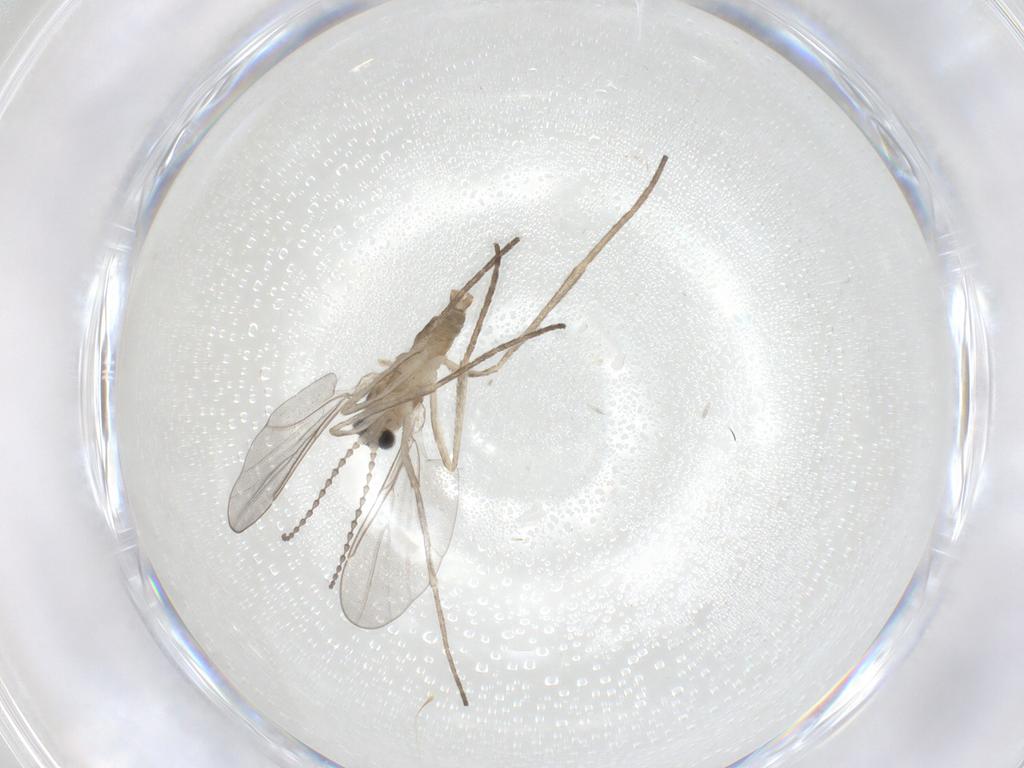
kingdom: Animalia
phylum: Arthropoda
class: Insecta
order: Diptera
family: Cecidomyiidae
